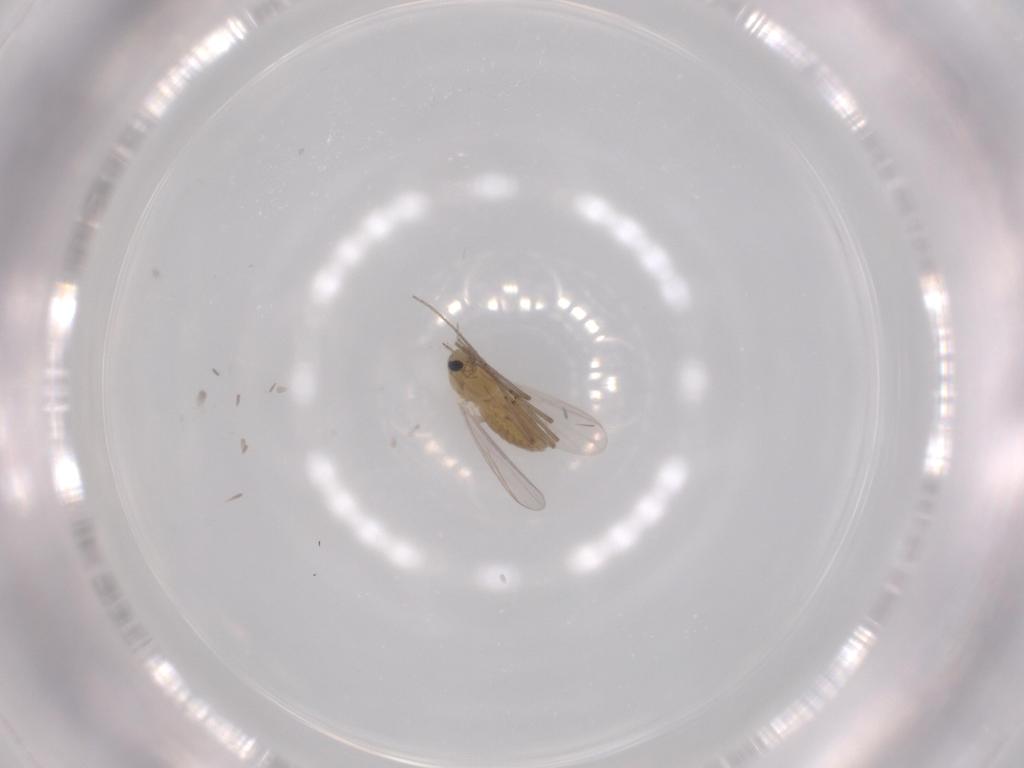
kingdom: Animalia
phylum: Arthropoda
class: Insecta
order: Diptera
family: Chironomidae
